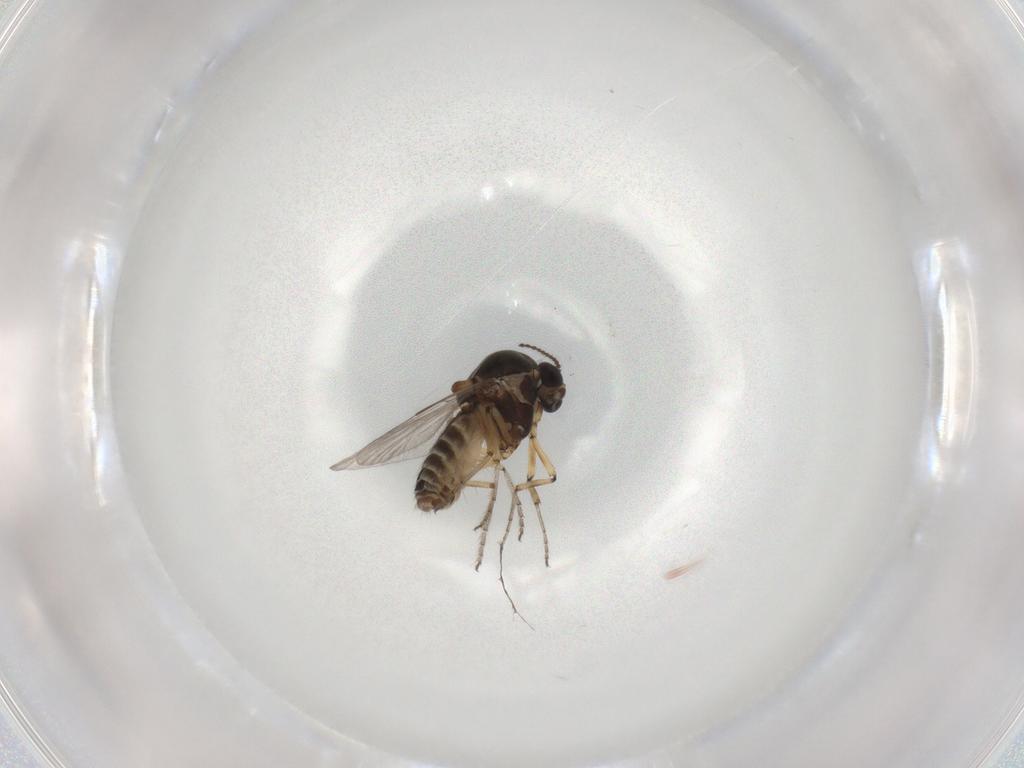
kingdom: Animalia
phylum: Arthropoda
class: Insecta
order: Diptera
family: Ceratopogonidae
